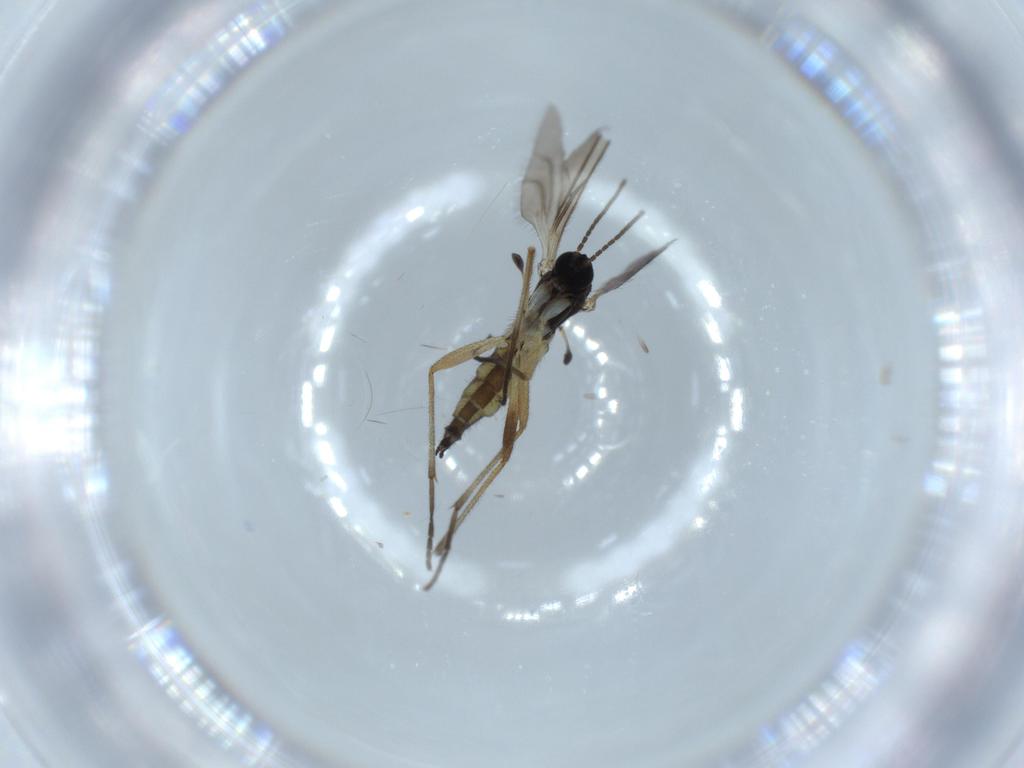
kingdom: Animalia
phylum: Arthropoda
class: Insecta
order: Diptera
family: Sciaridae
